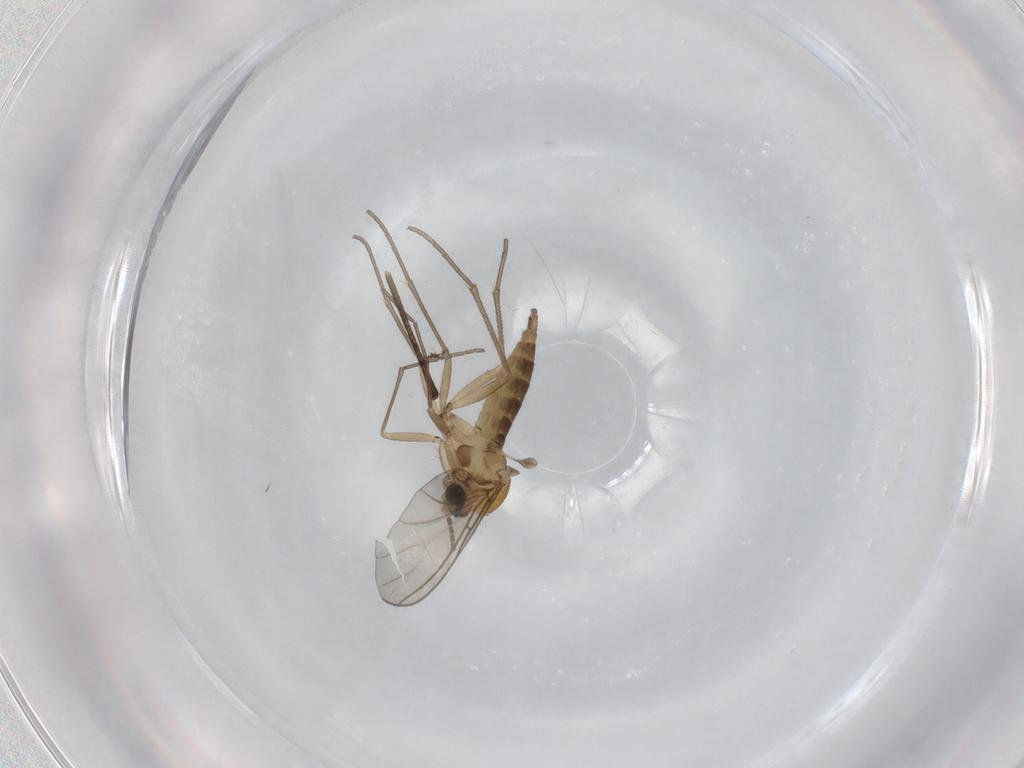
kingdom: Animalia
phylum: Arthropoda
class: Insecta
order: Diptera
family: Sciaridae
